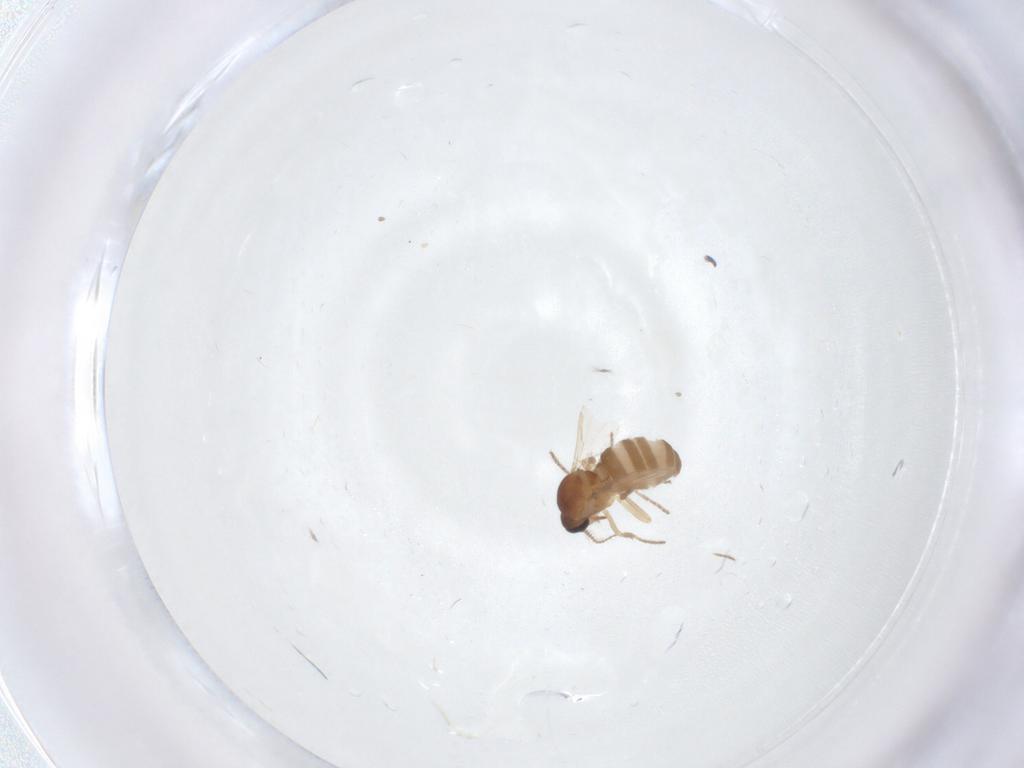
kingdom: Animalia
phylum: Arthropoda
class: Insecta
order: Diptera
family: Ceratopogonidae
